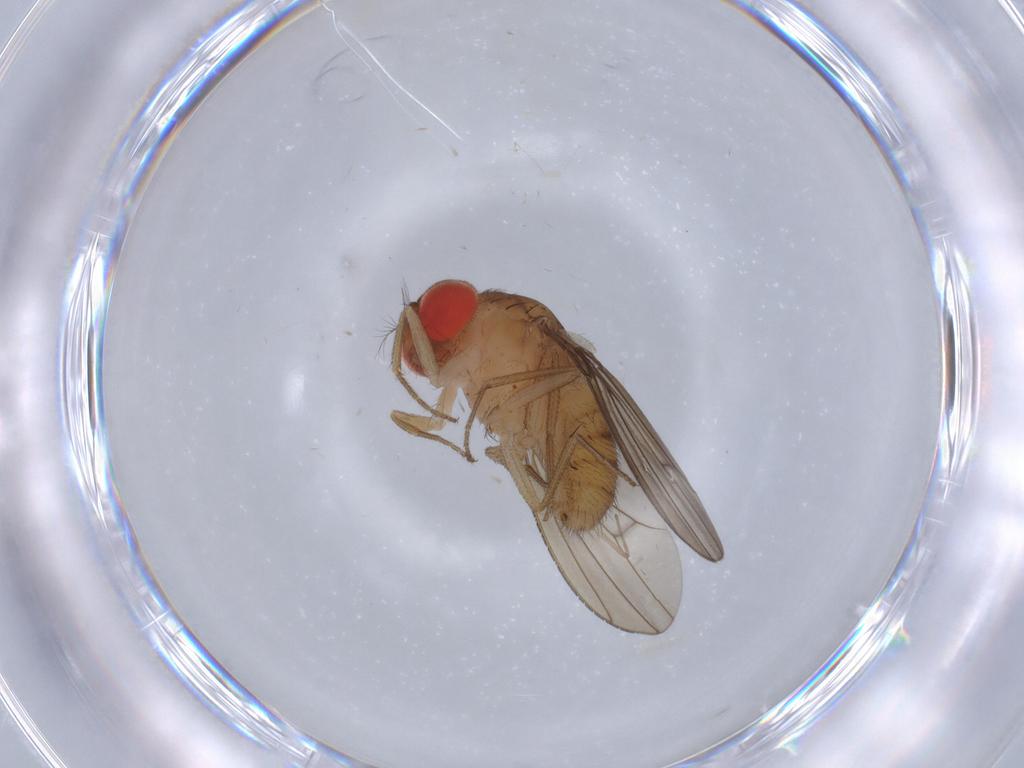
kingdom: Animalia
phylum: Arthropoda
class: Insecta
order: Diptera
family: Drosophilidae
